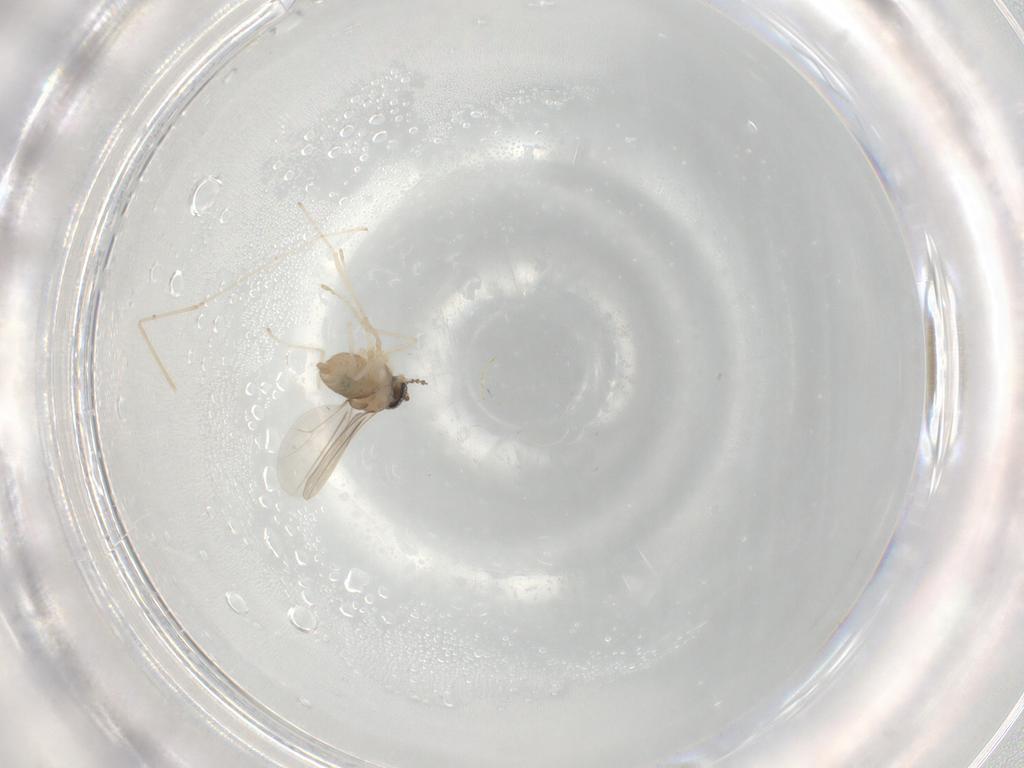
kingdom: Animalia
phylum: Arthropoda
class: Insecta
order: Diptera
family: Cecidomyiidae
